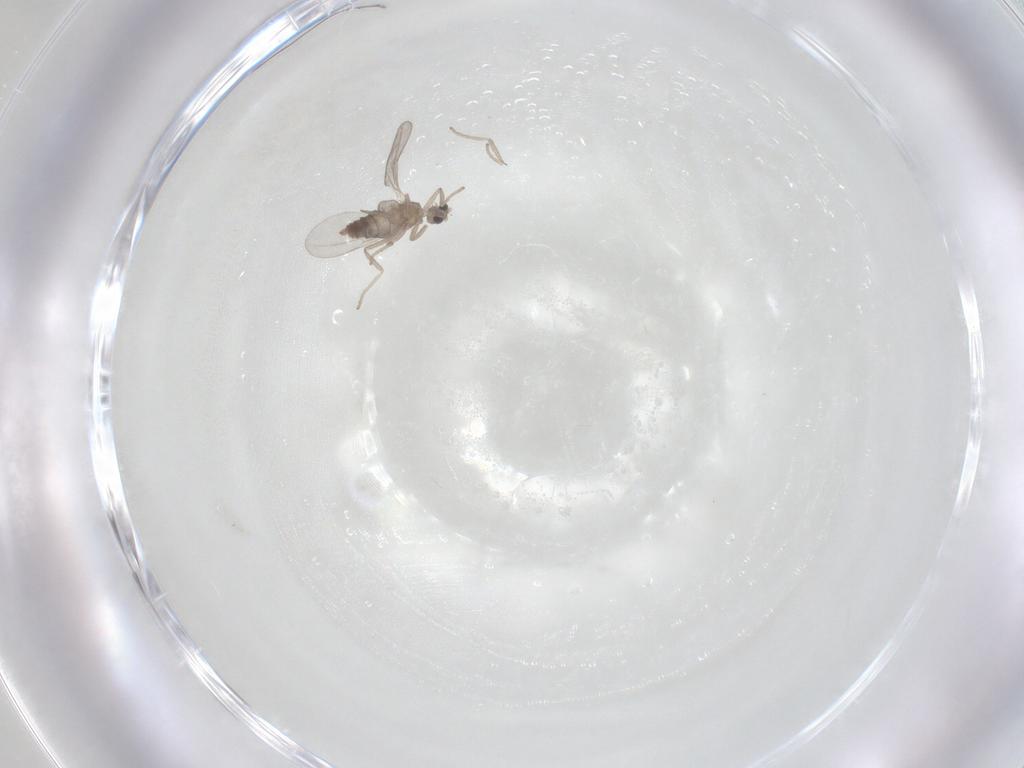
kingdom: Animalia
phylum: Arthropoda
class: Insecta
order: Diptera
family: Cecidomyiidae
